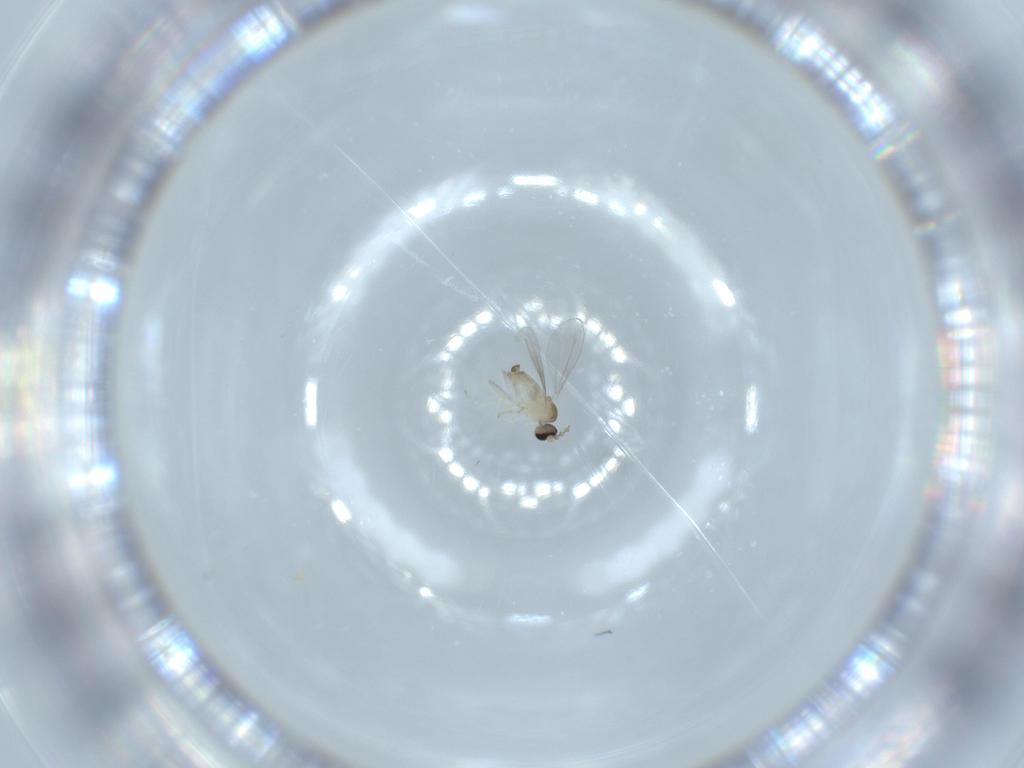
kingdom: Animalia
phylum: Arthropoda
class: Insecta
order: Diptera
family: Cecidomyiidae
